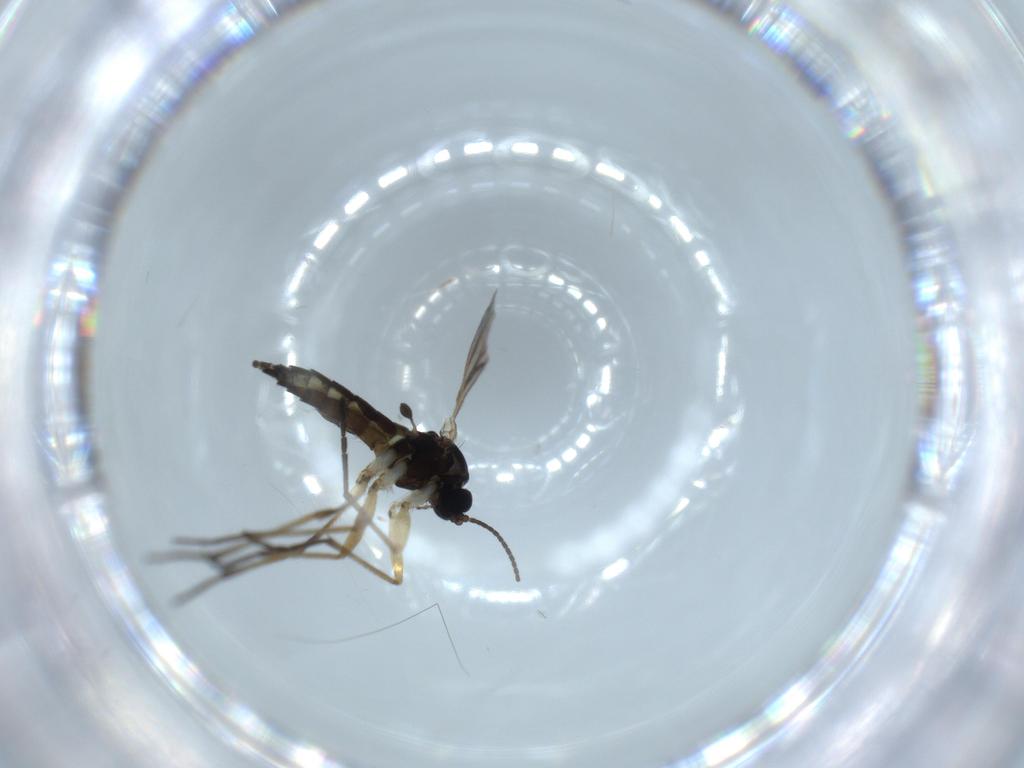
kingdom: Animalia
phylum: Arthropoda
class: Insecta
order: Diptera
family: Sciaridae
